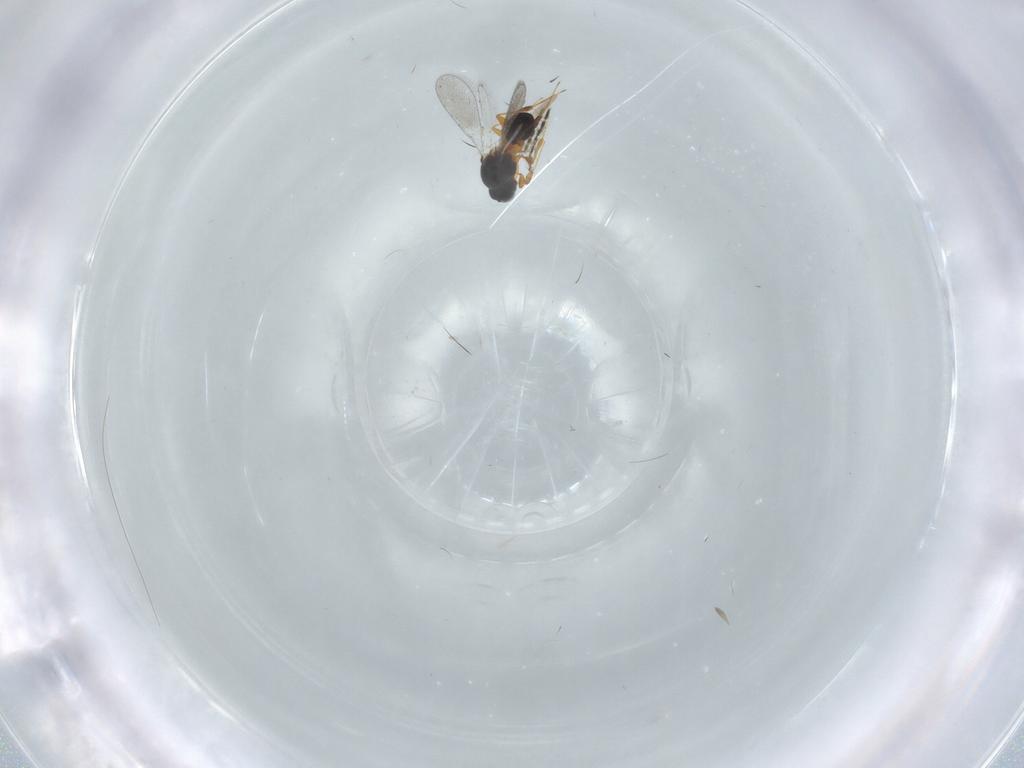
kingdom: Animalia
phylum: Arthropoda
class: Insecta
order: Hymenoptera
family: Platygastridae
